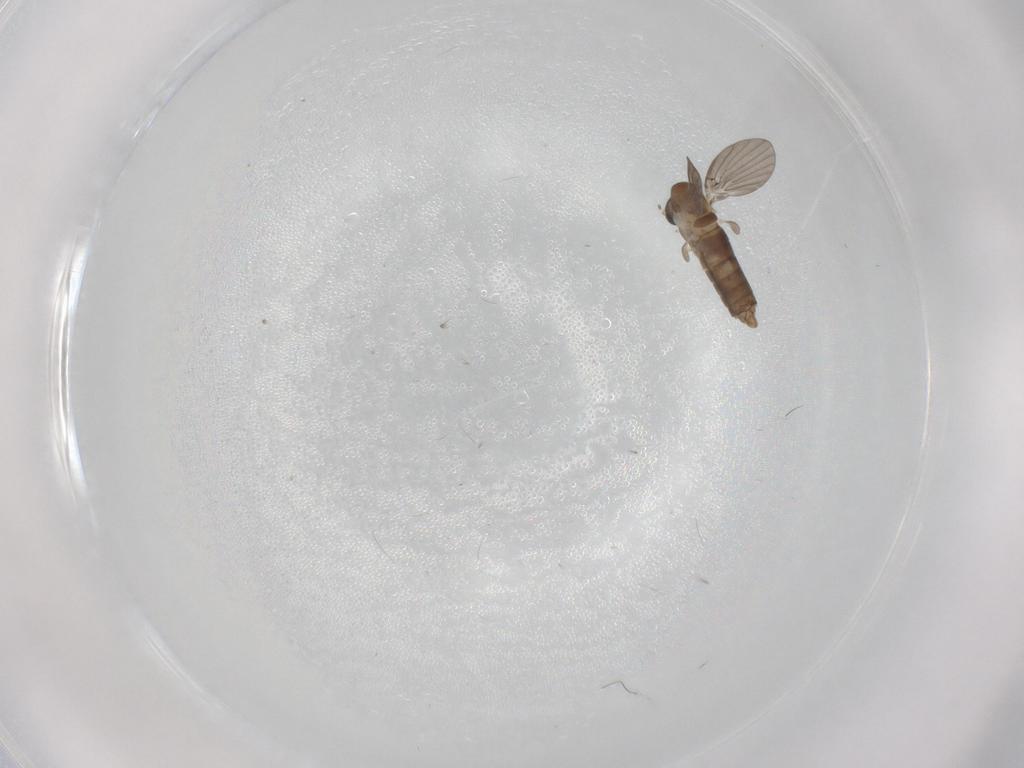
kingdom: Animalia
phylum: Arthropoda
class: Insecta
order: Diptera
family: Psychodidae
